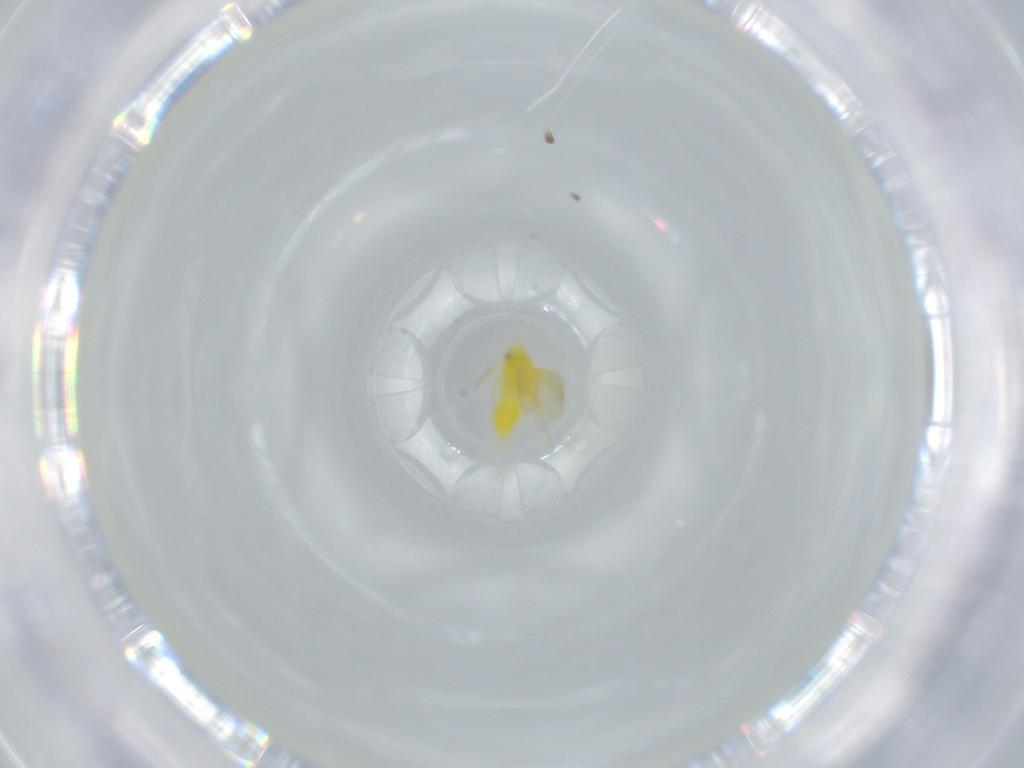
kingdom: Animalia
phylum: Arthropoda
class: Insecta
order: Hemiptera
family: Aleyrodidae
